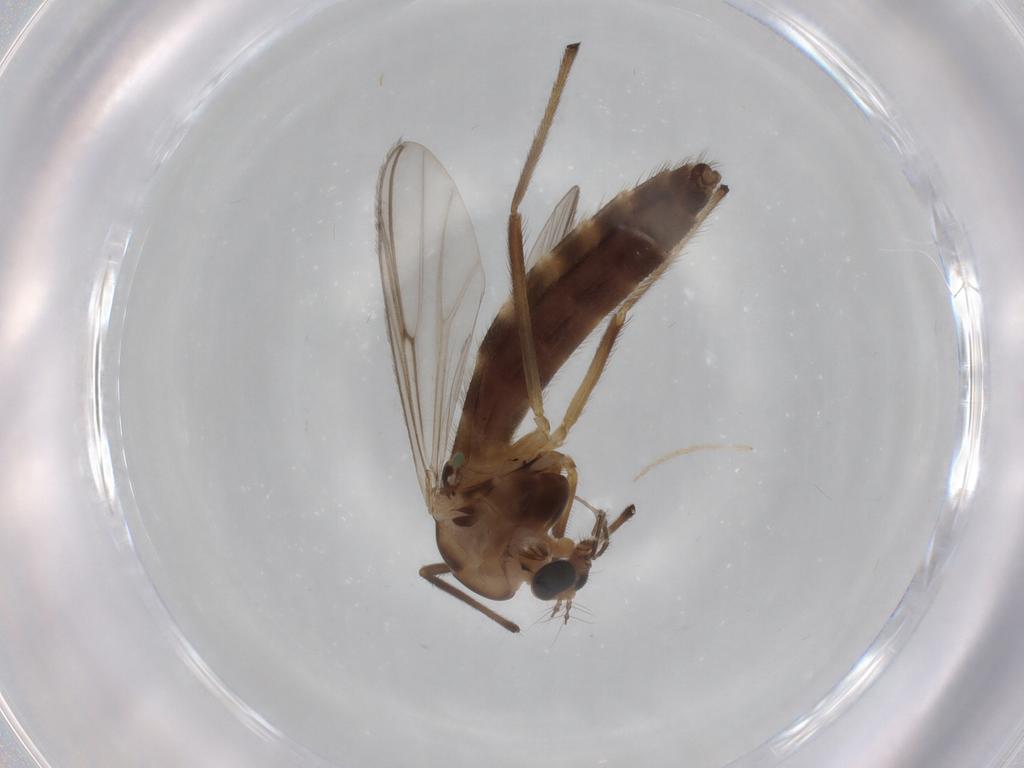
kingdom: Animalia
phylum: Arthropoda
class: Insecta
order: Diptera
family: Chironomidae
